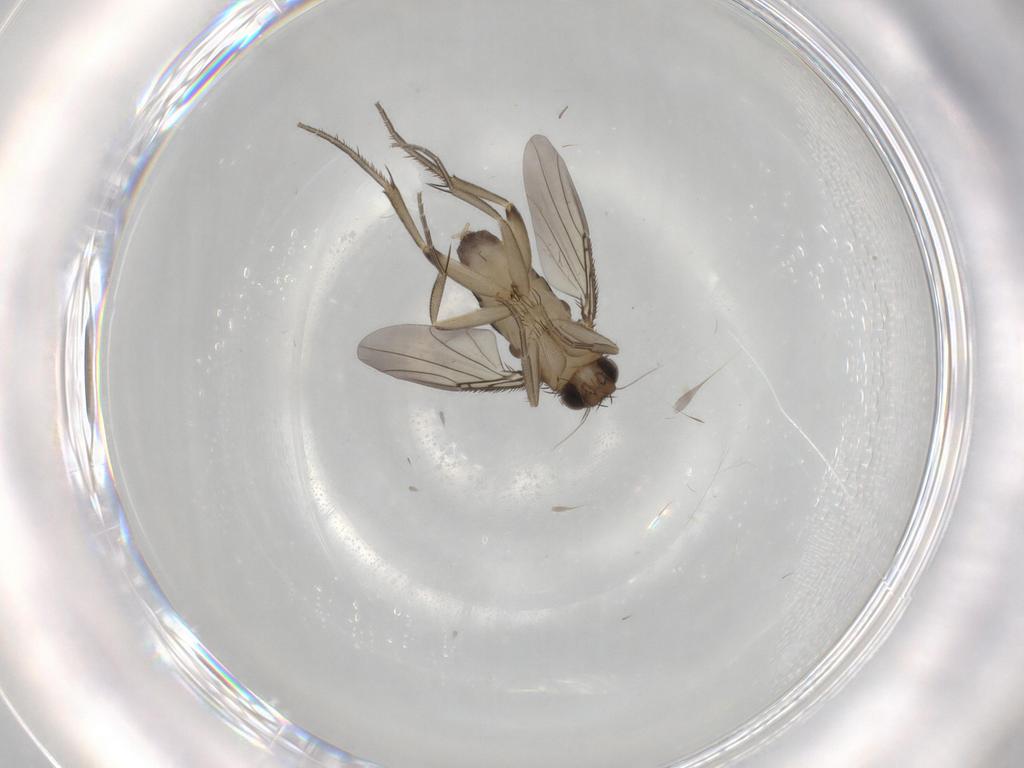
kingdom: Animalia
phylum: Arthropoda
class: Insecta
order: Diptera
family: Phoridae
